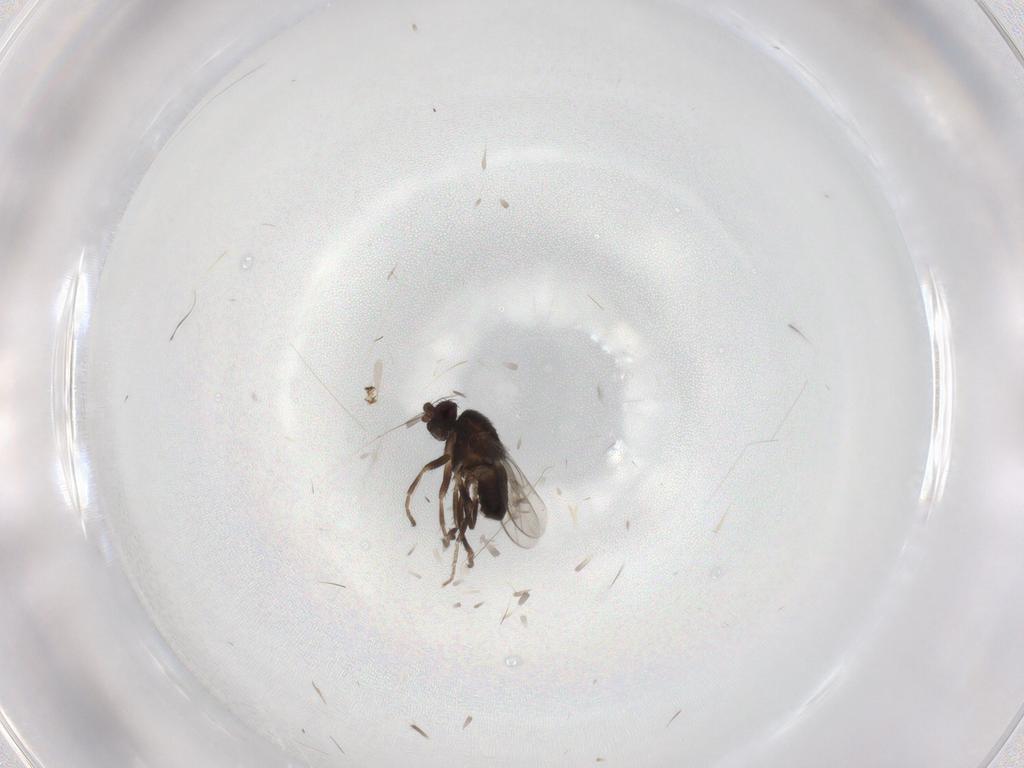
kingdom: Animalia
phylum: Arthropoda
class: Insecta
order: Diptera
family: Sphaeroceridae
